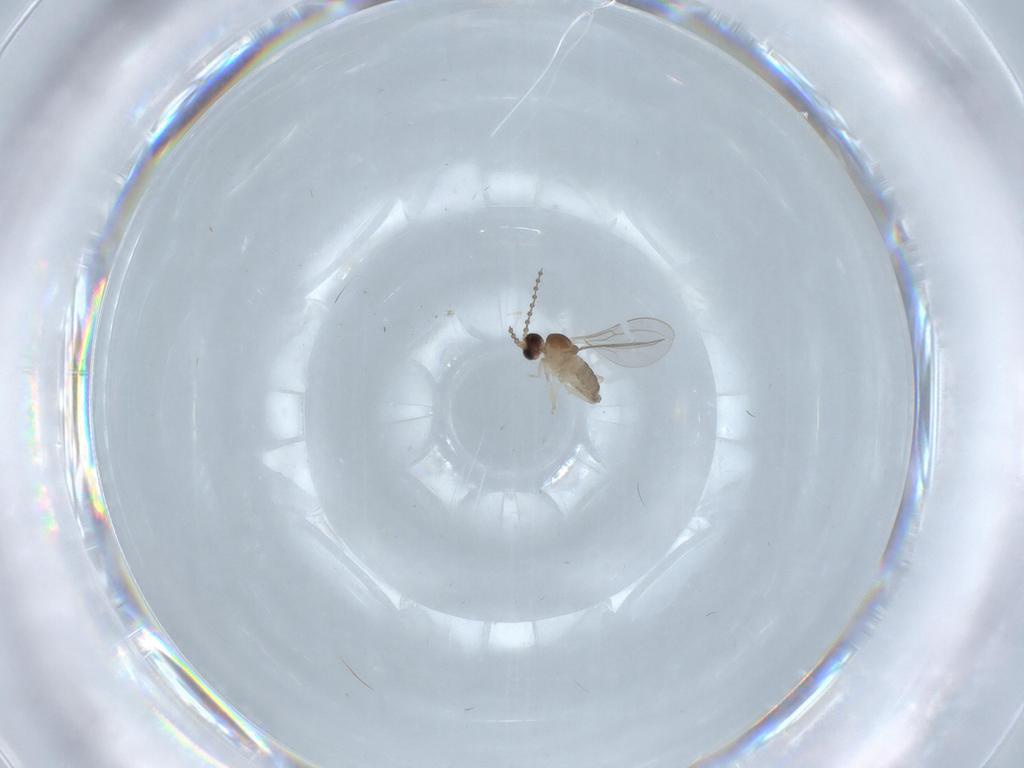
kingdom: Animalia
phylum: Arthropoda
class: Insecta
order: Diptera
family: Cecidomyiidae
